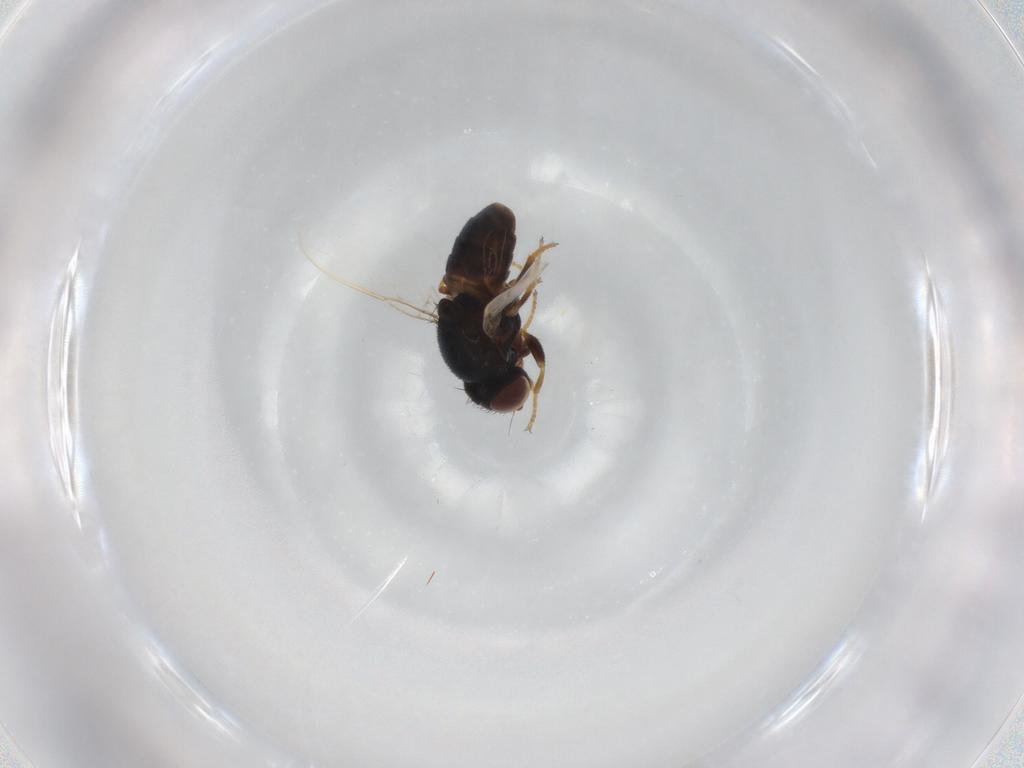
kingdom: Animalia
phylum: Arthropoda
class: Insecta
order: Diptera
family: Chloropidae
